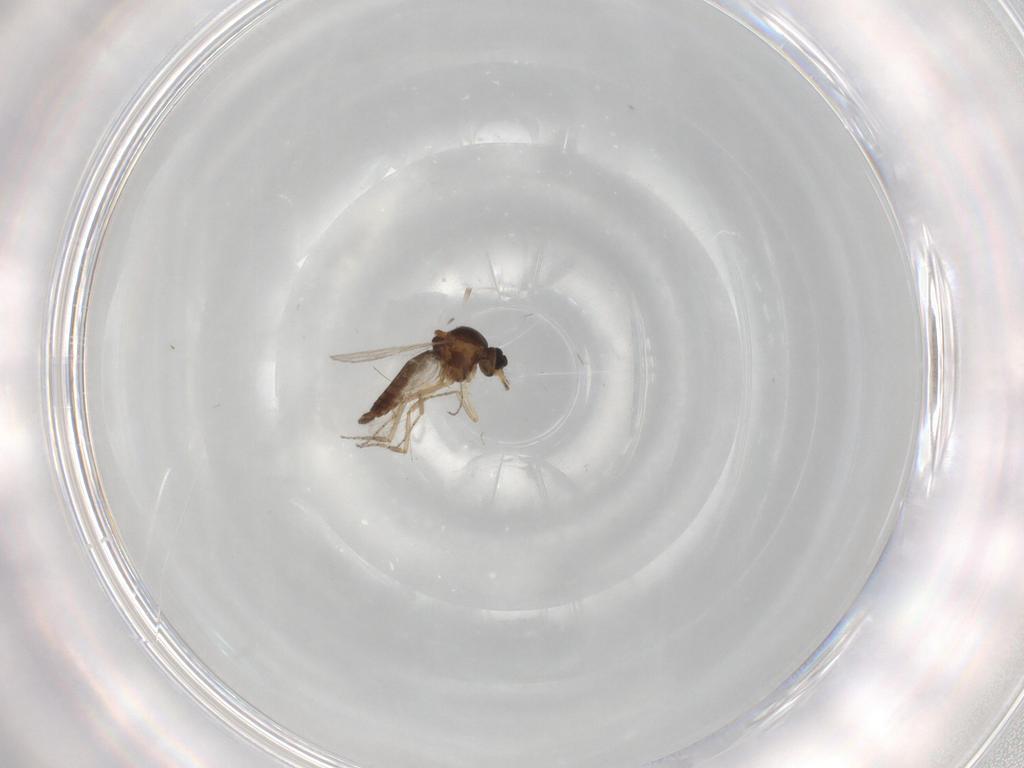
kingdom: Animalia
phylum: Arthropoda
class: Insecta
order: Diptera
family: Ceratopogonidae
